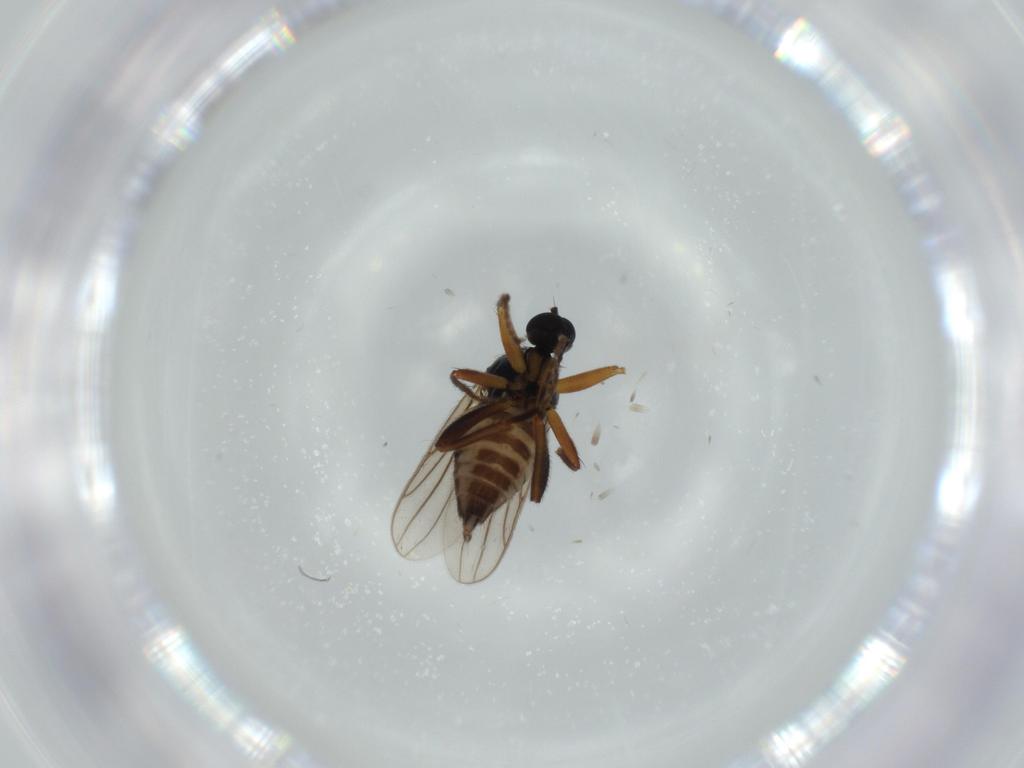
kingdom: Animalia
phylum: Arthropoda
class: Insecta
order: Diptera
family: Hybotidae
